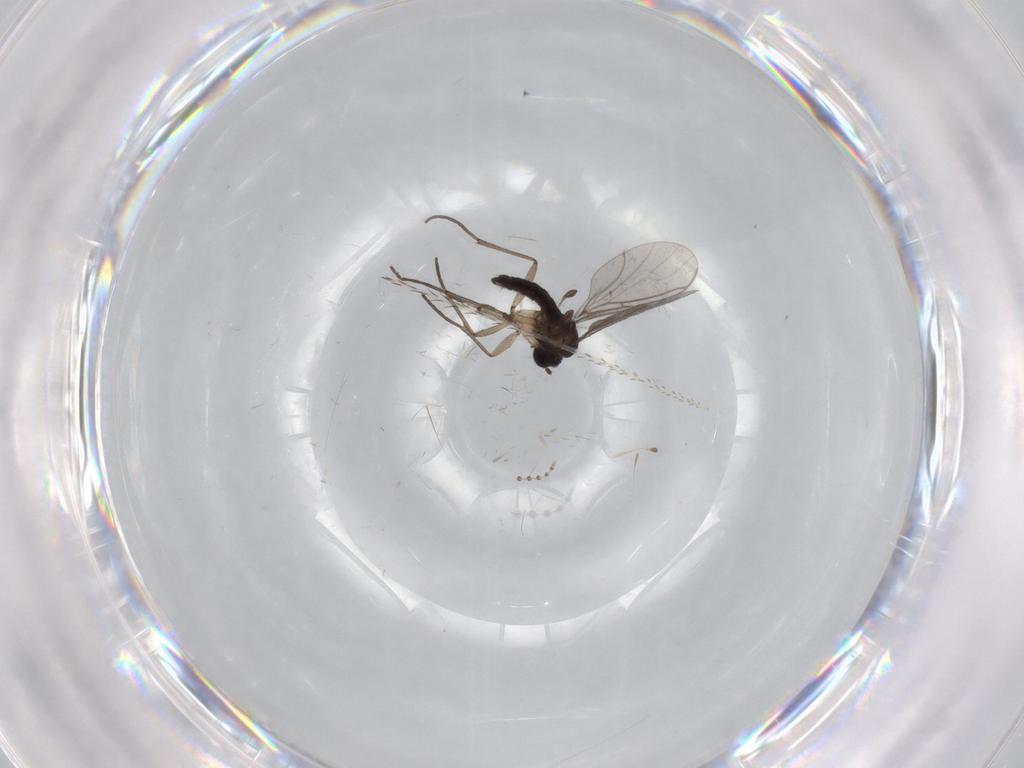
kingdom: Animalia
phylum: Arthropoda
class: Insecta
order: Diptera
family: Sciaridae
